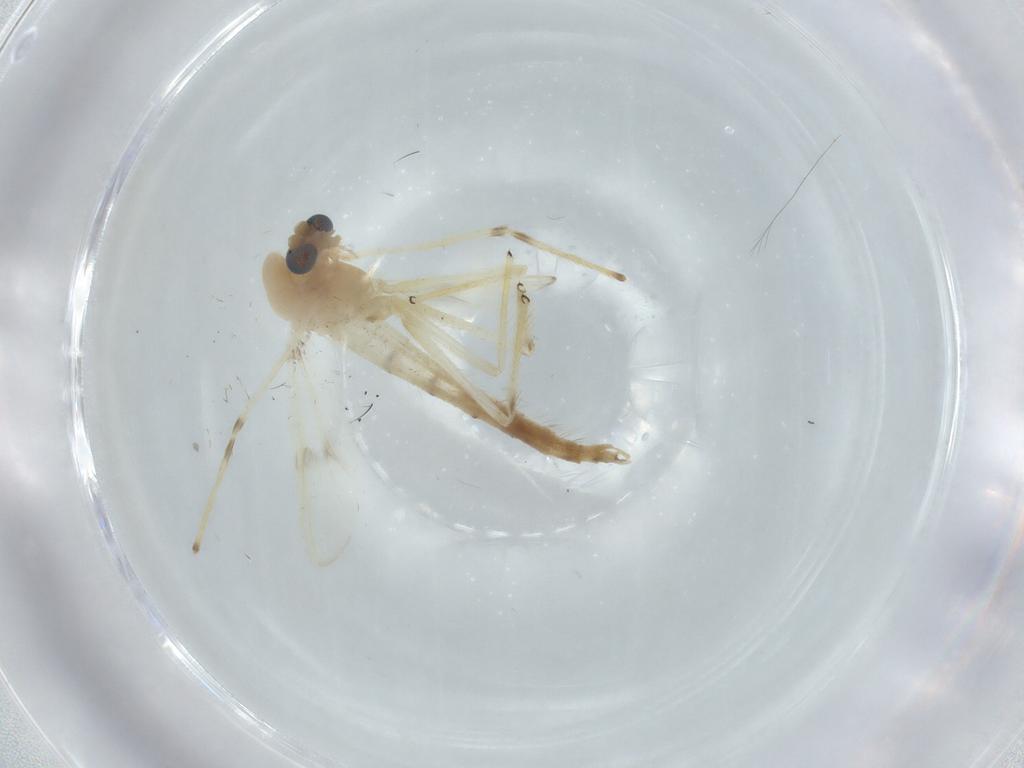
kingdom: Animalia
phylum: Arthropoda
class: Insecta
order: Diptera
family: Chironomidae
